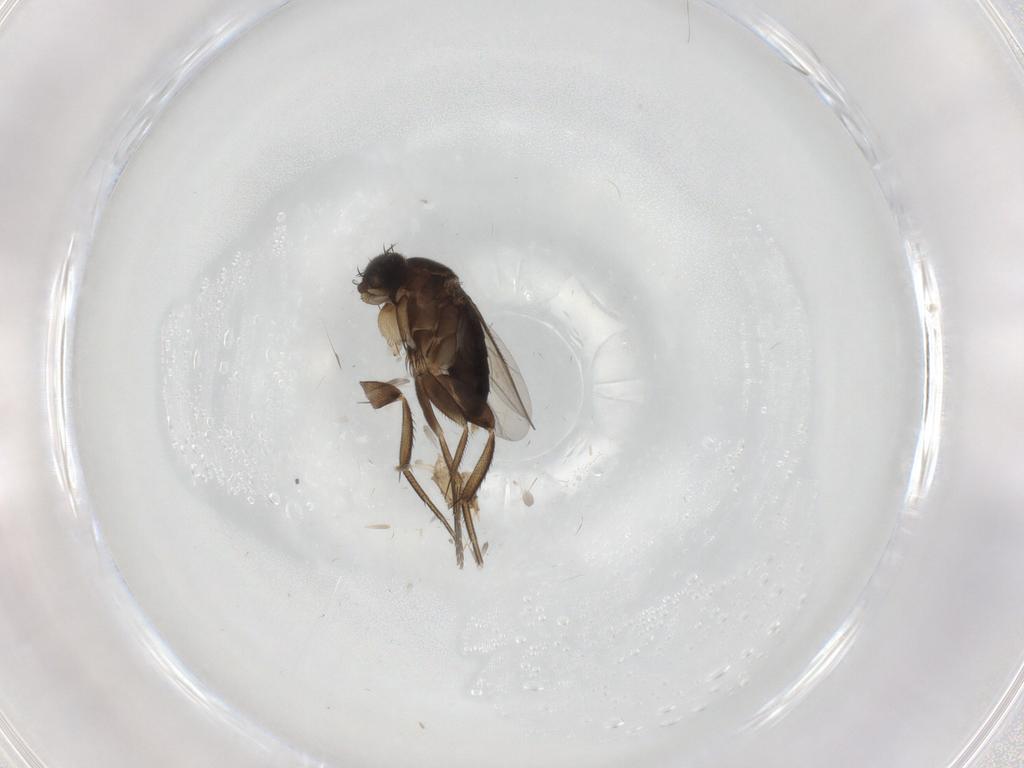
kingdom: Animalia
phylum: Arthropoda
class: Insecta
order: Diptera
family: Phoridae
